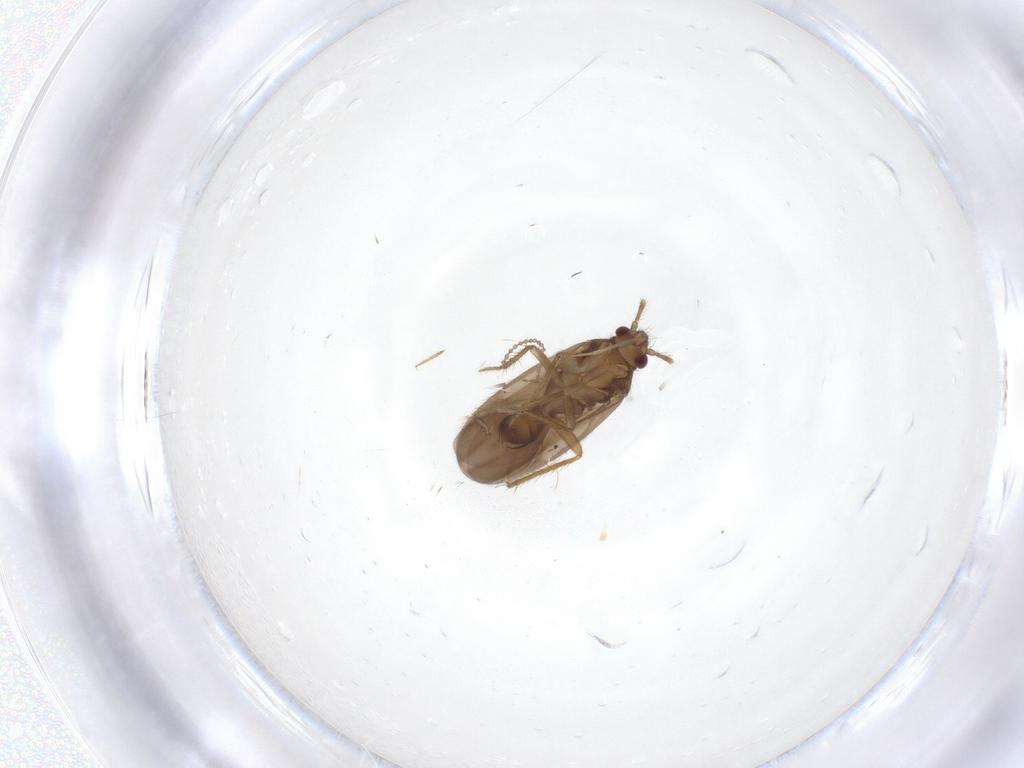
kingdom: Animalia
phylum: Arthropoda
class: Insecta
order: Hemiptera
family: Ceratocombidae
